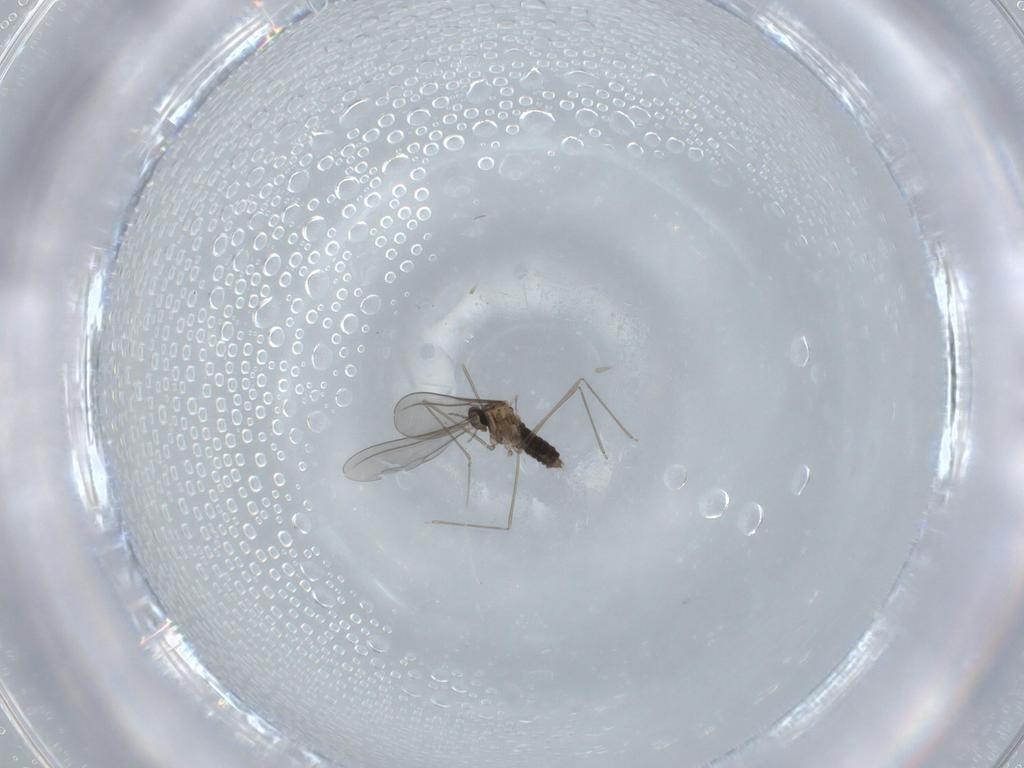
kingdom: Animalia
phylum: Arthropoda
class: Insecta
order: Diptera
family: Cecidomyiidae
